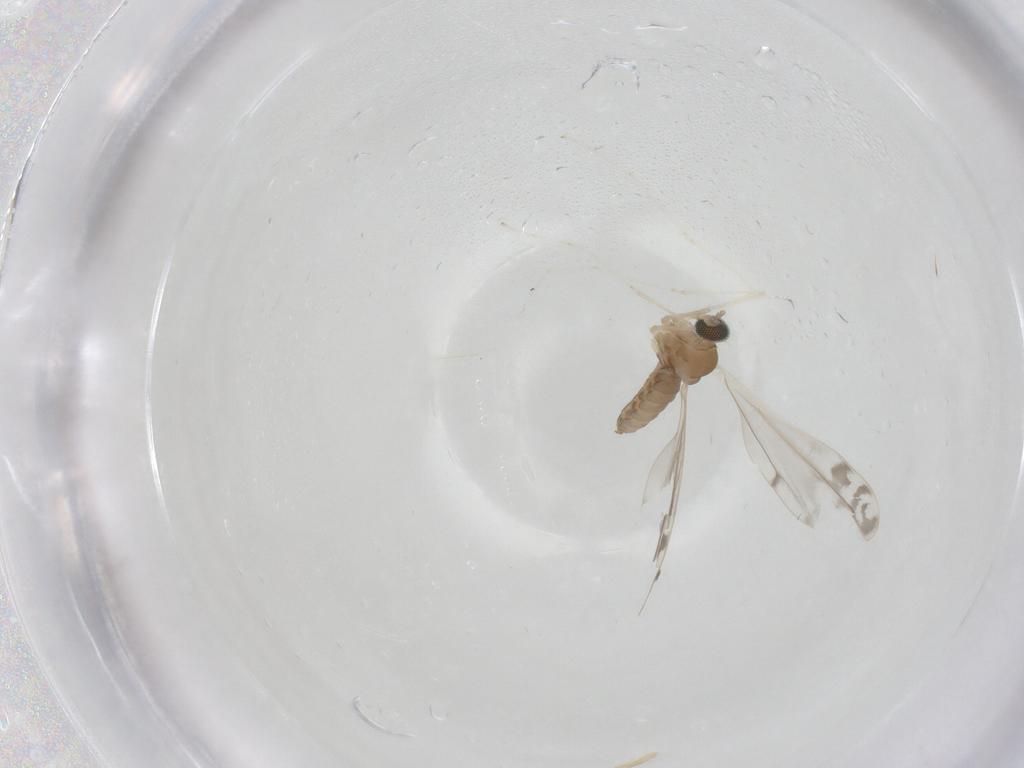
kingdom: Animalia
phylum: Arthropoda
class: Insecta
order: Diptera
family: Cecidomyiidae
